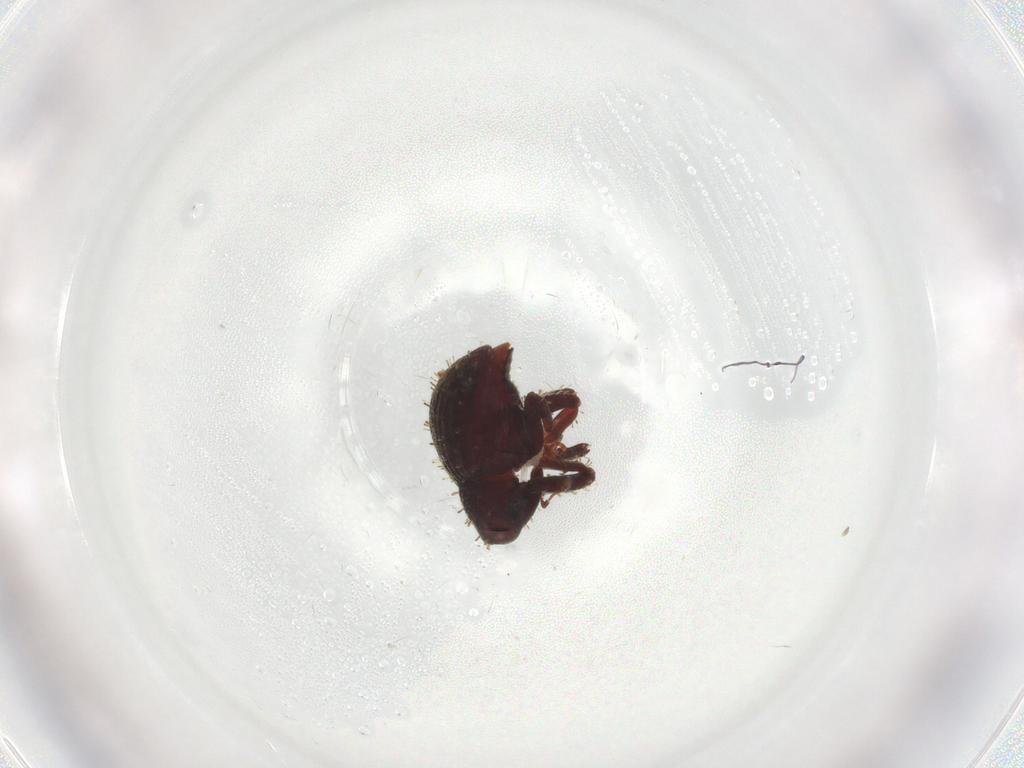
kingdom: Animalia
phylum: Arthropoda
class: Insecta
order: Coleoptera
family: Curculionidae
